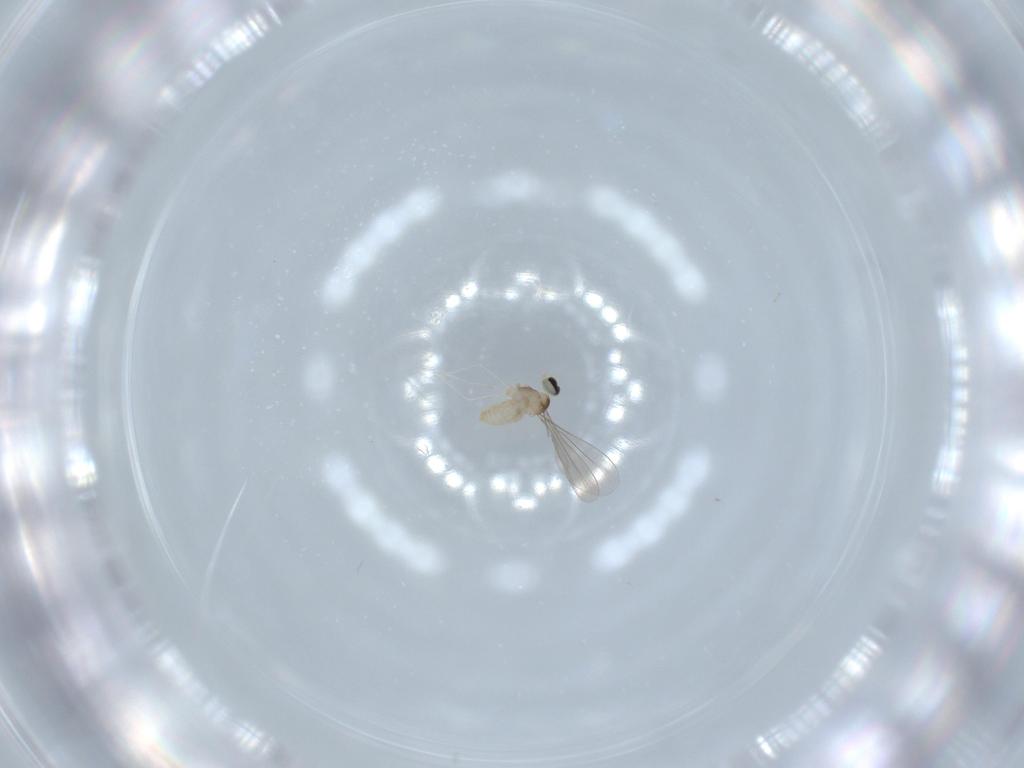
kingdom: Animalia
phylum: Arthropoda
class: Insecta
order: Diptera
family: Cecidomyiidae
